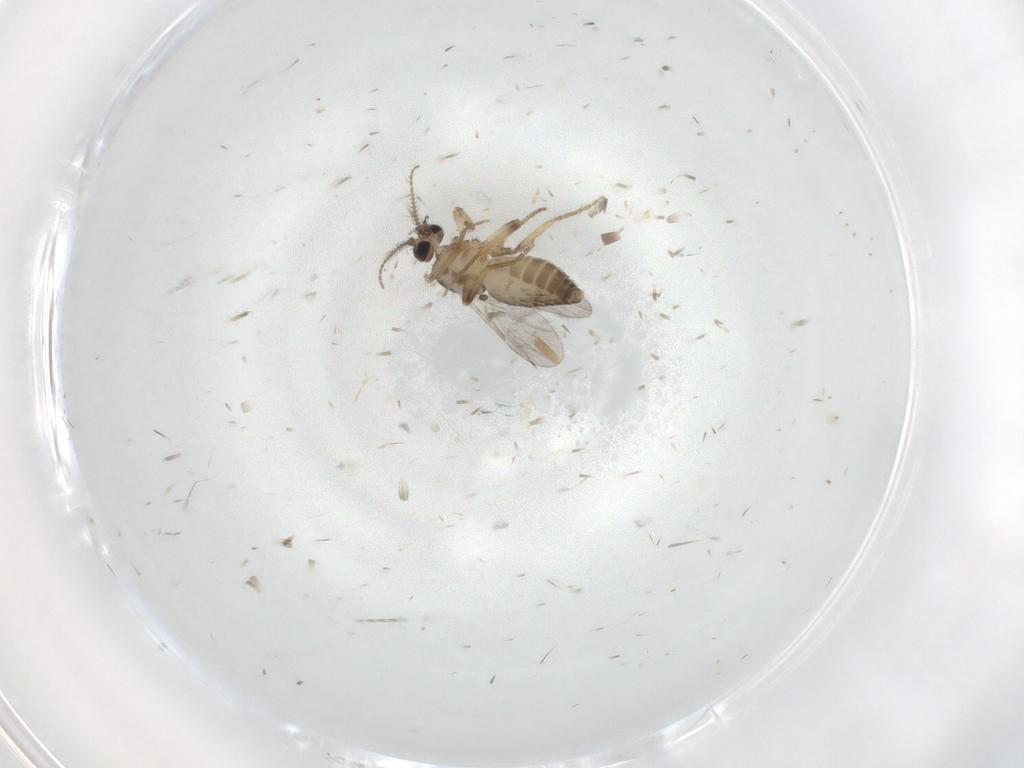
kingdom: Animalia
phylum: Arthropoda
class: Insecta
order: Diptera
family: Ceratopogonidae
